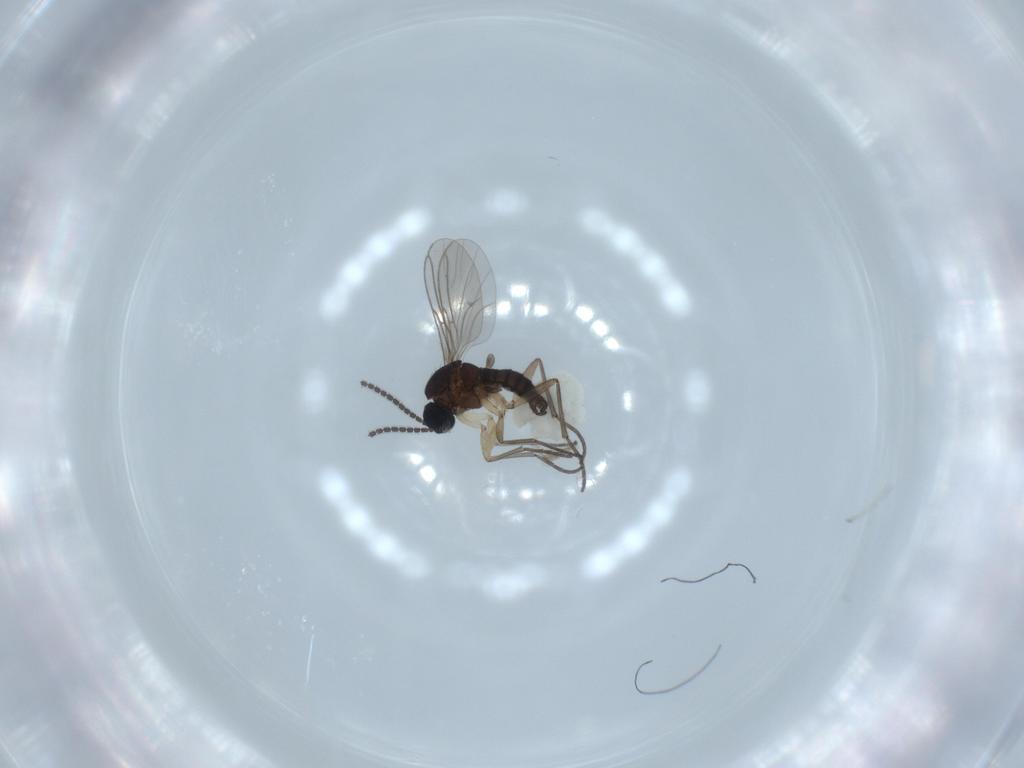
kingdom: Animalia
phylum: Arthropoda
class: Insecta
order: Diptera
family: Sciaridae
